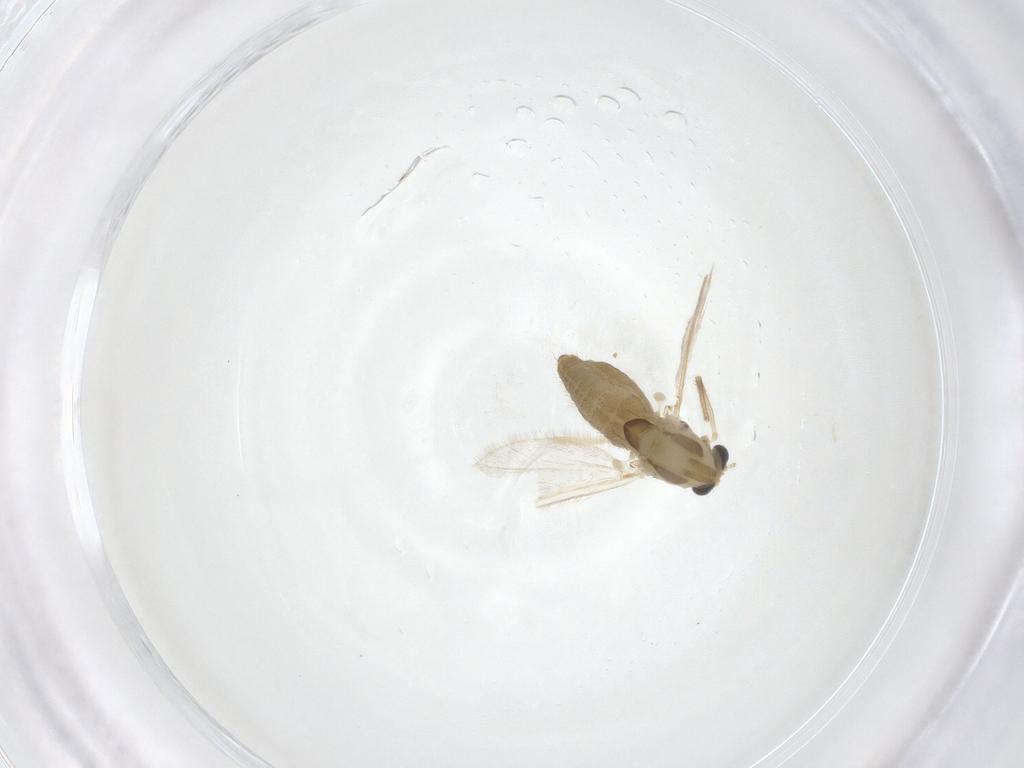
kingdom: Animalia
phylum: Arthropoda
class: Insecta
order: Diptera
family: Chironomidae
